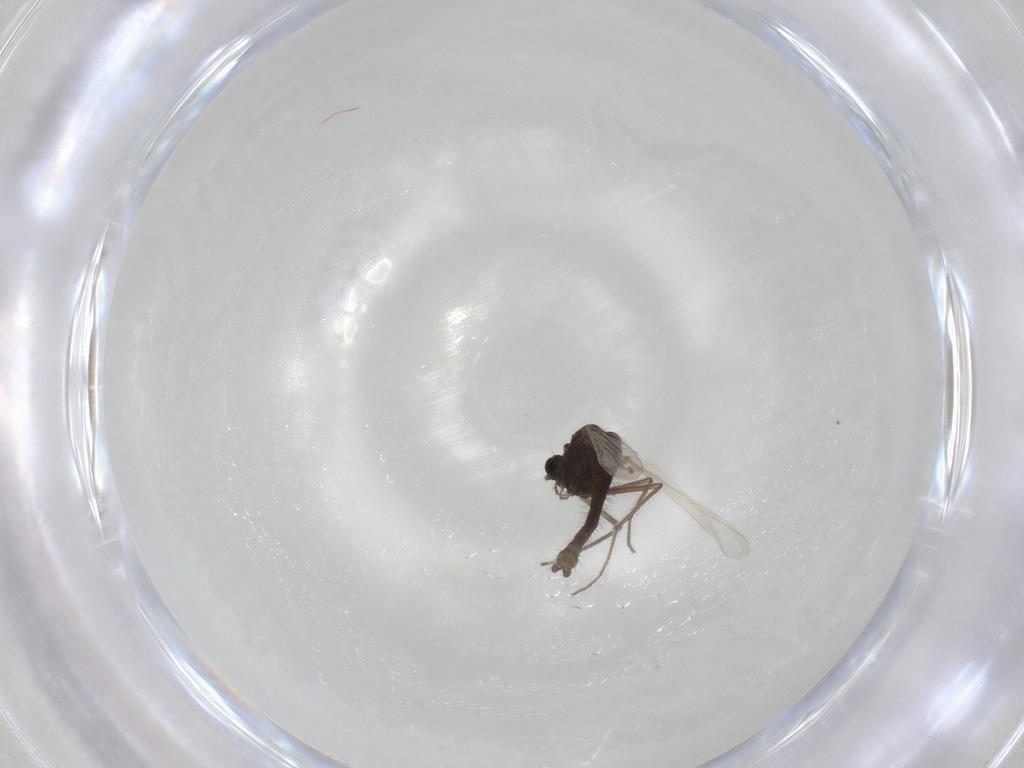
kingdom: Animalia
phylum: Arthropoda
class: Insecta
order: Diptera
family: Chironomidae
